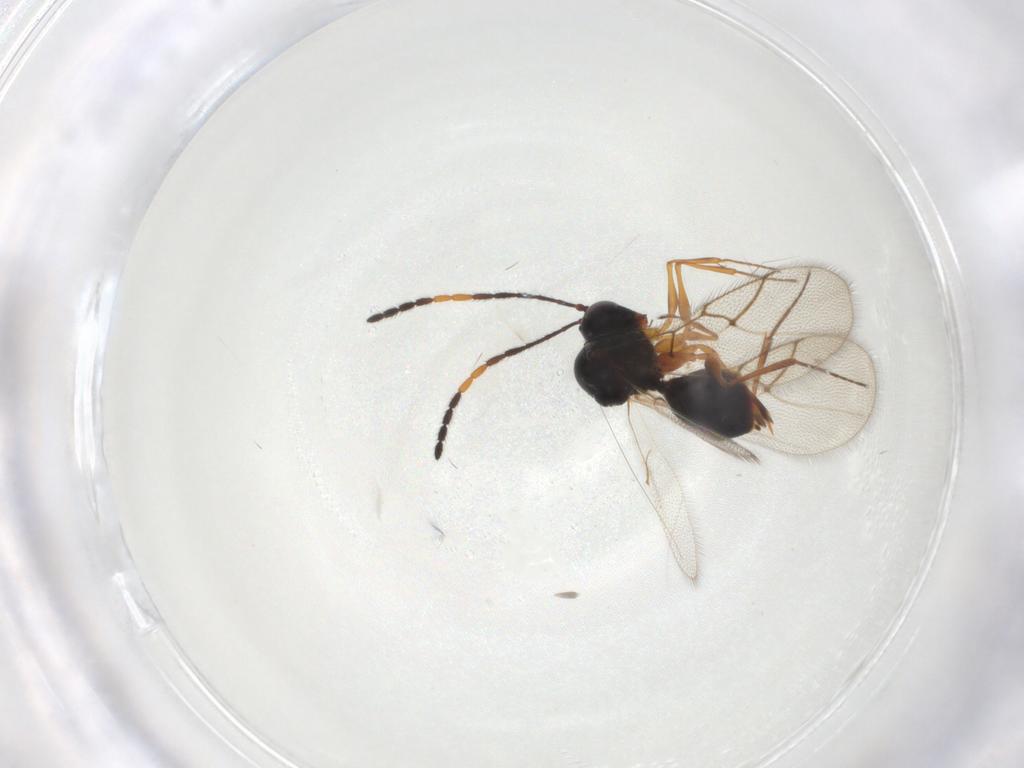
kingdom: Animalia
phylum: Arthropoda
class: Insecta
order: Hymenoptera
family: Figitidae
